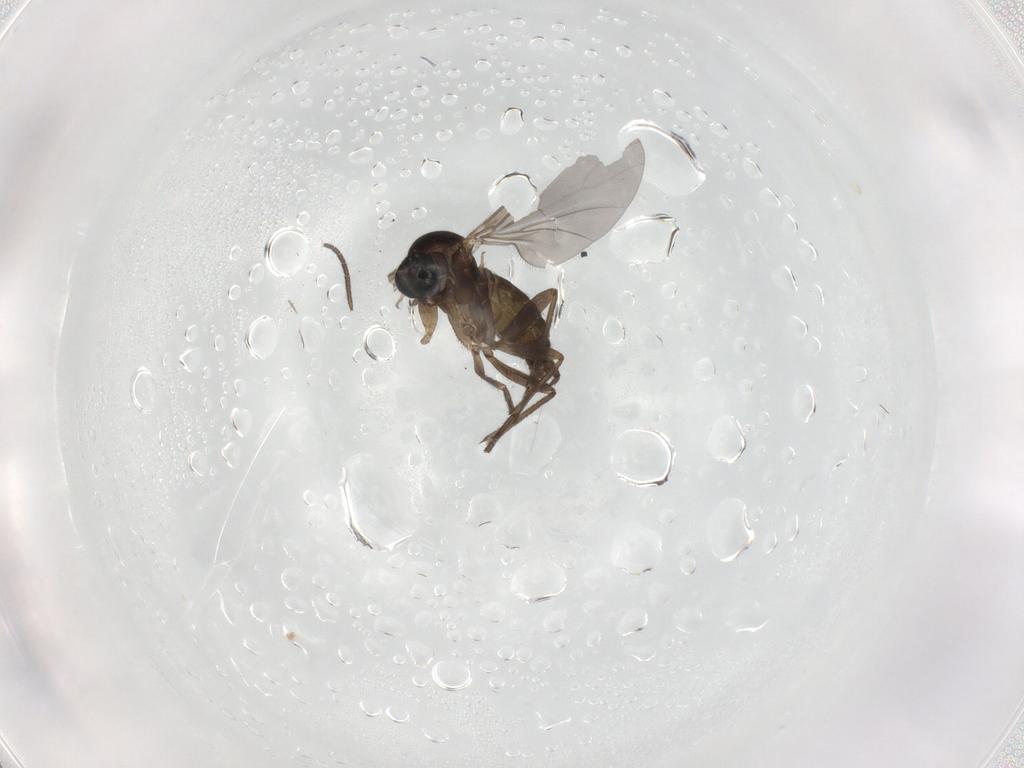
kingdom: Animalia
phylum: Arthropoda
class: Insecta
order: Diptera
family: Sciaridae
